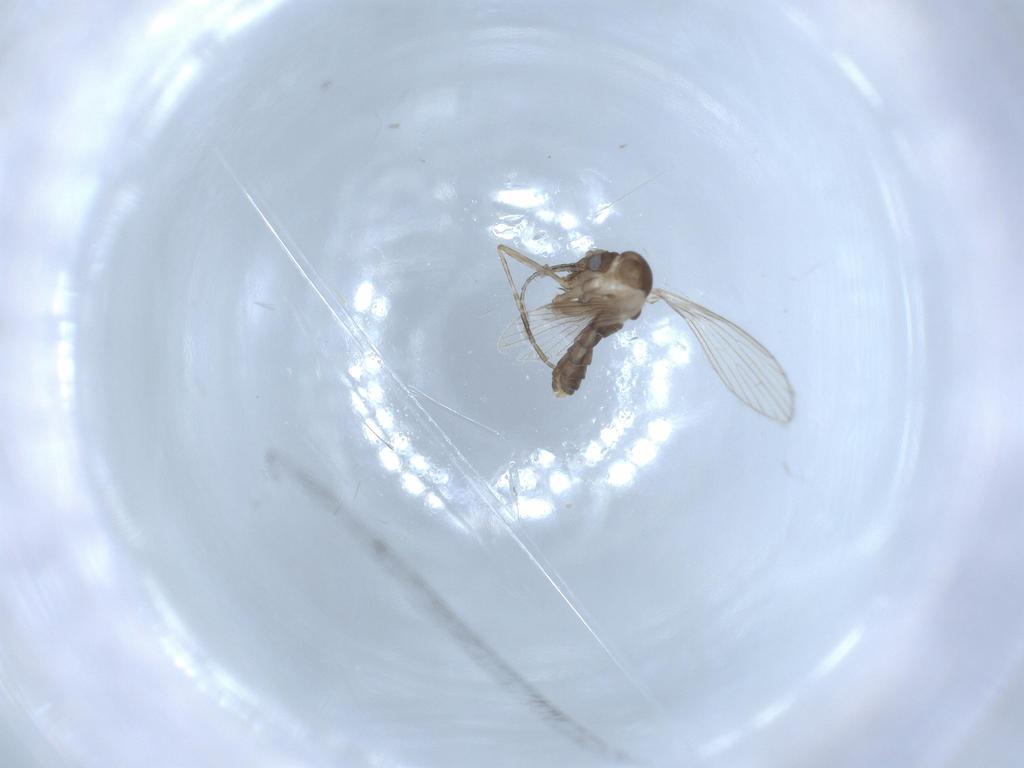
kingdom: Animalia
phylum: Arthropoda
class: Insecta
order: Diptera
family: Psychodidae
